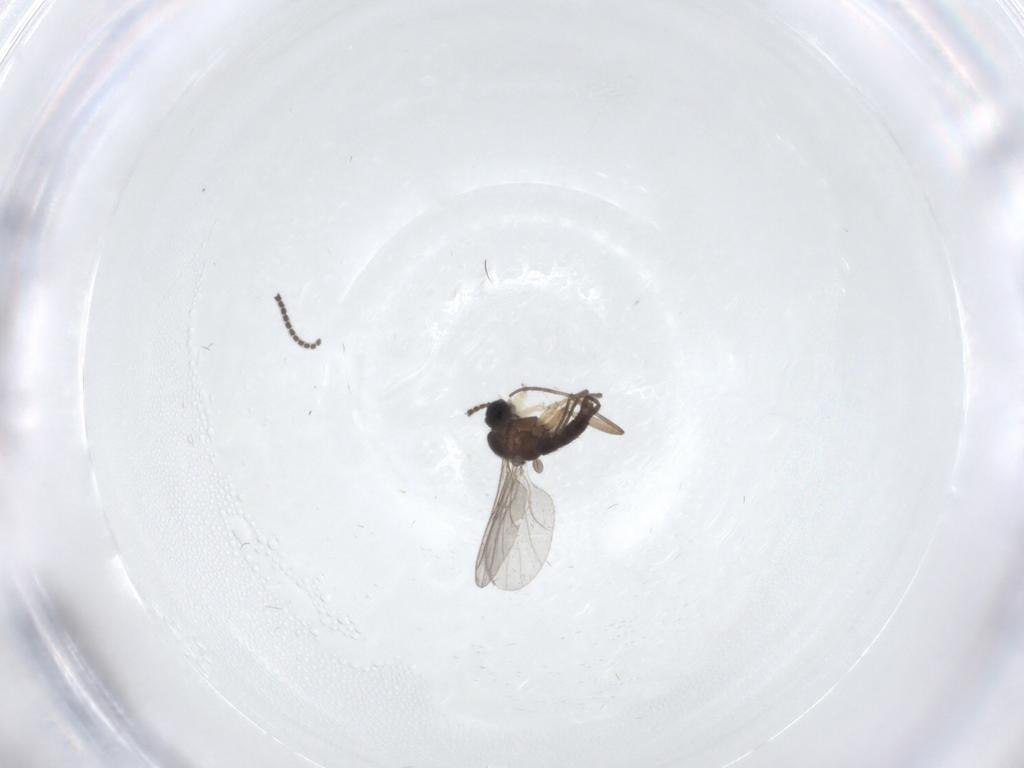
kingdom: Animalia
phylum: Arthropoda
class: Insecta
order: Diptera
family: Sciaridae
